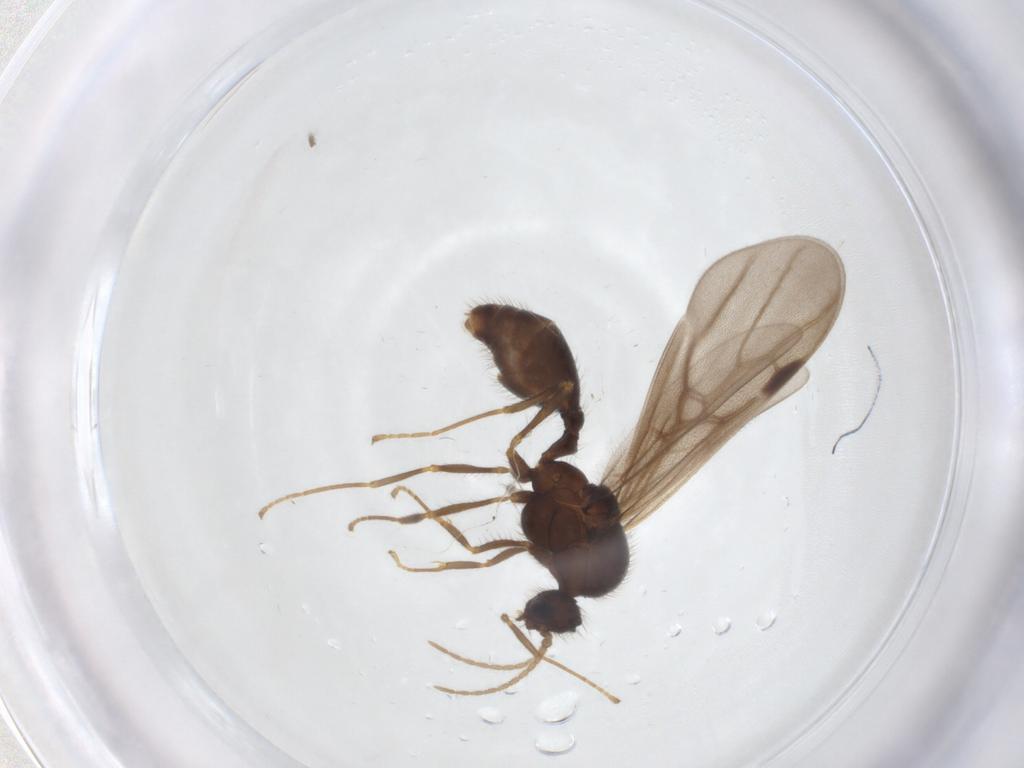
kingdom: Animalia
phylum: Arthropoda
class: Insecta
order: Hymenoptera
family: Formicidae
